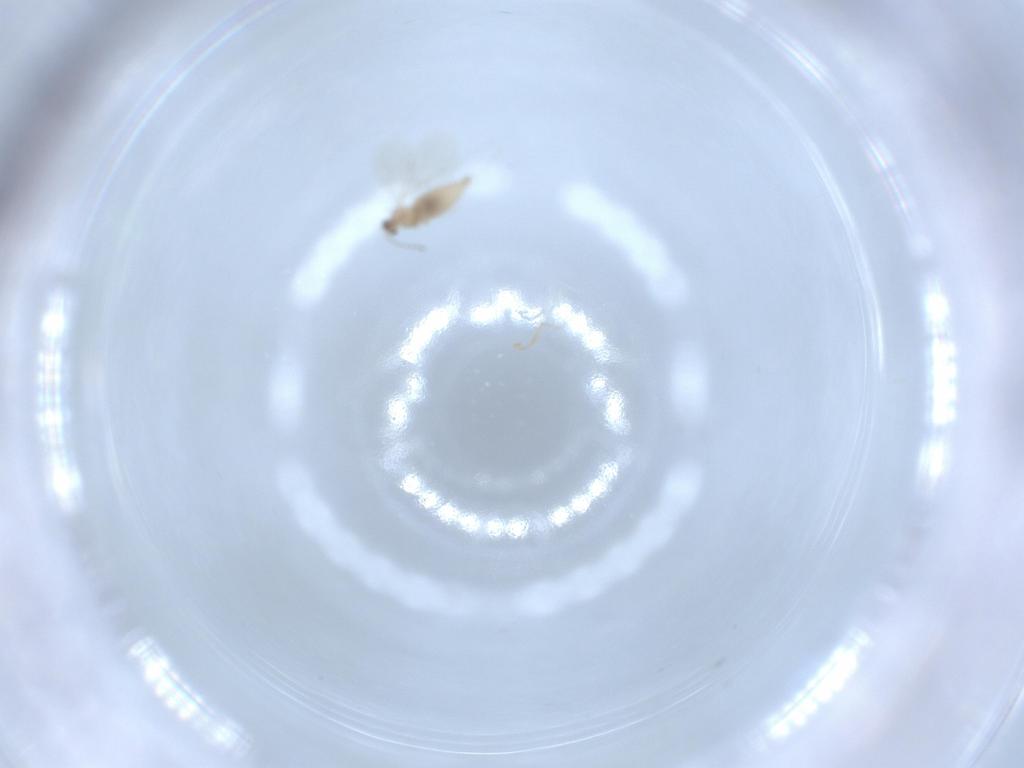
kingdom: Animalia
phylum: Arthropoda
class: Insecta
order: Diptera
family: Cecidomyiidae
